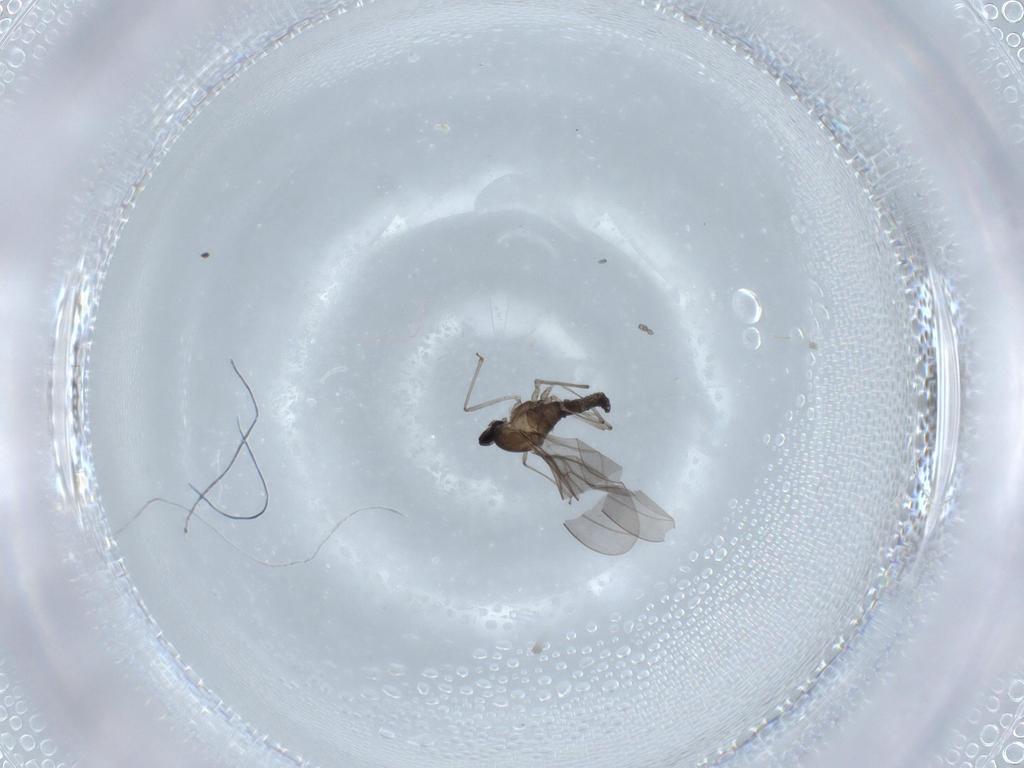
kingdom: Animalia
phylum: Arthropoda
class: Insecta
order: Diptera
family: Cecidomyiidae
